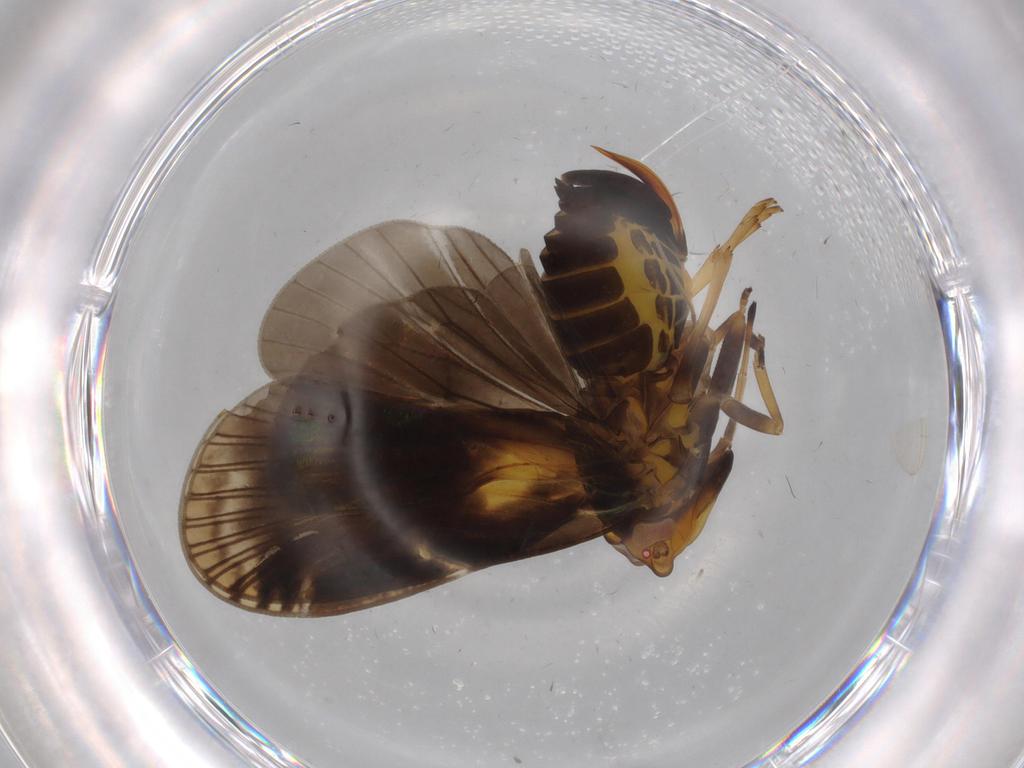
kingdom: Animalia
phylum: Arthropoda
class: Insecta
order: Hemiptera
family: Cixiidae
